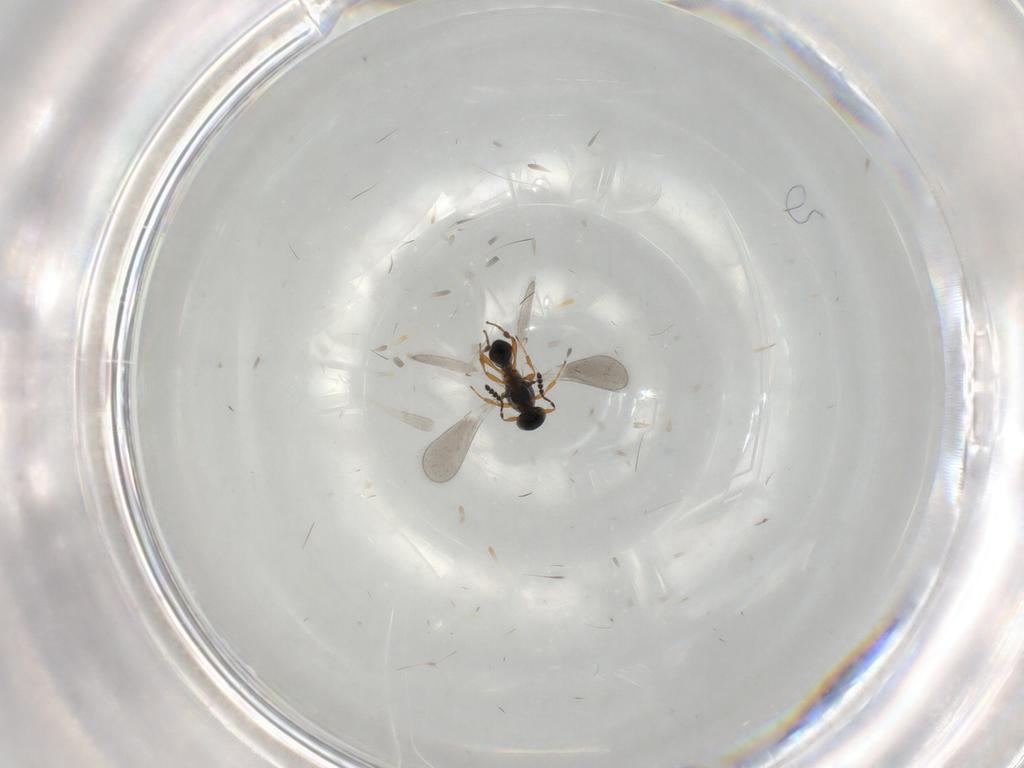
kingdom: Animalia
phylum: Arthropoda
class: Insecta
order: Hymenoptera
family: Platygastridae
